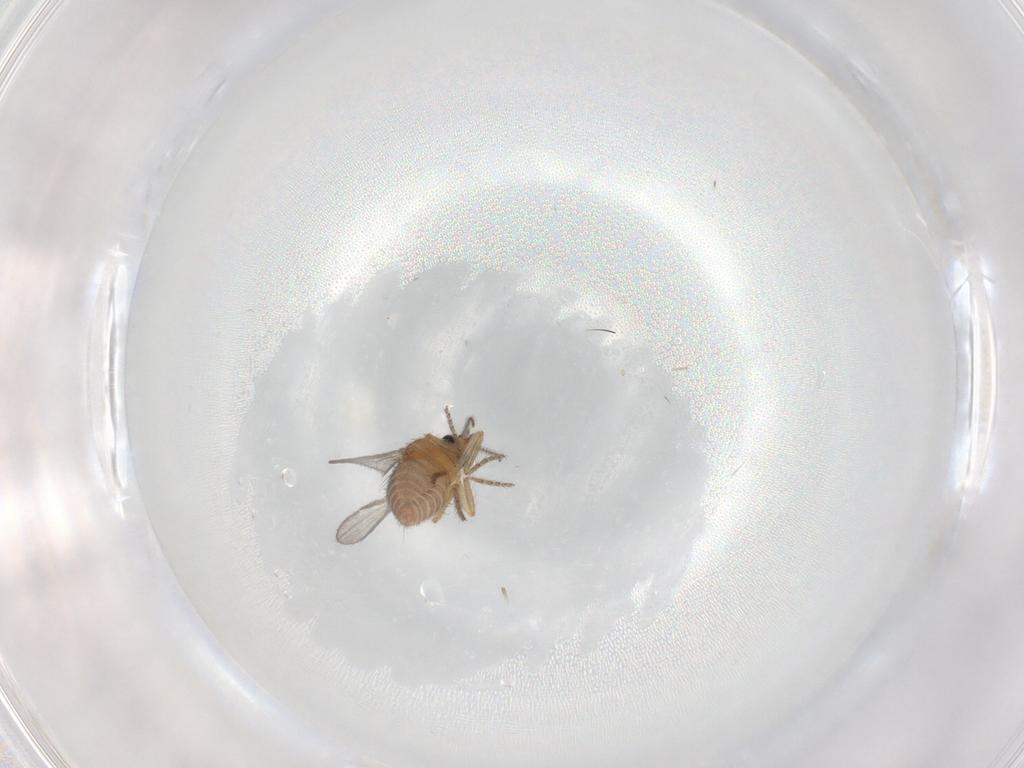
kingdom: Animalia
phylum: Arthropoda
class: Insecta
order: Diptera
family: Ceratopogonidae
